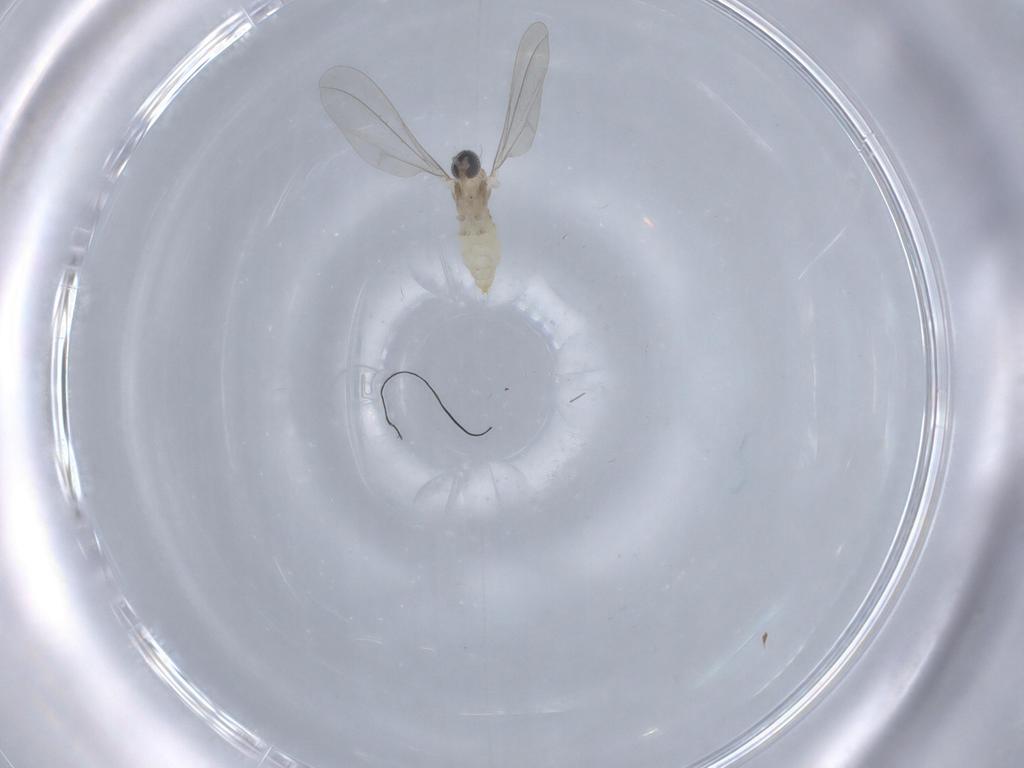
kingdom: Animalia
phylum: Arthropoda
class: Insecta
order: Diptera
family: Cecidomyiidae
